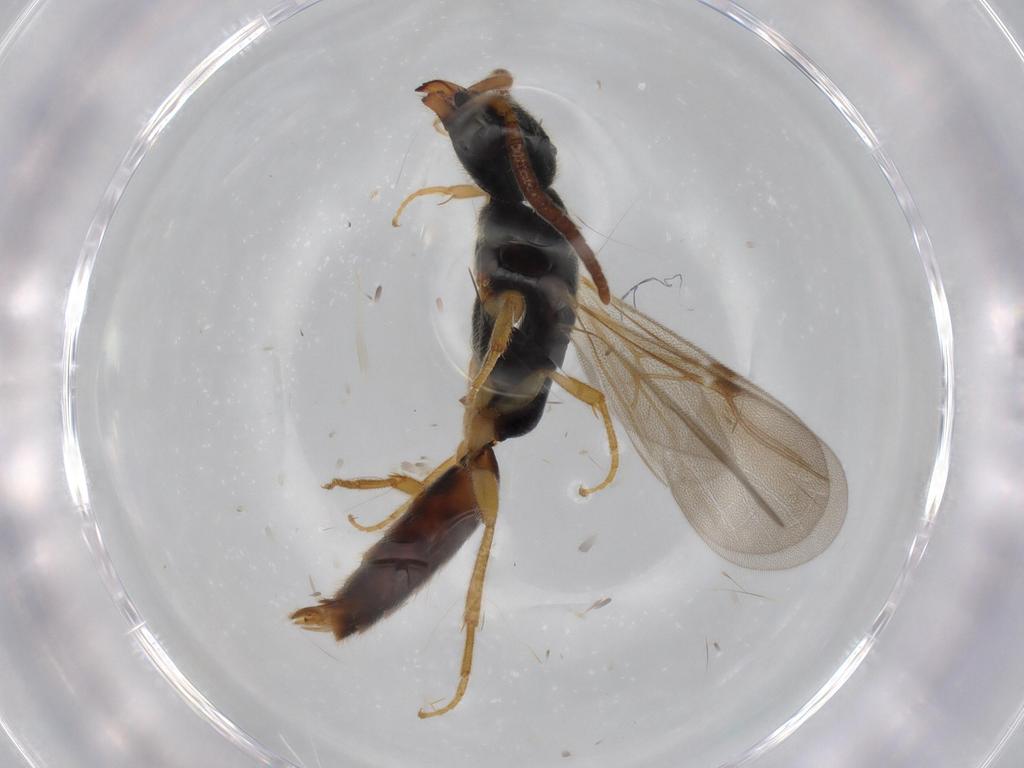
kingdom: Animalia
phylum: Arthropoda
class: Insecta
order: Hymenoptera
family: Bethylidae
